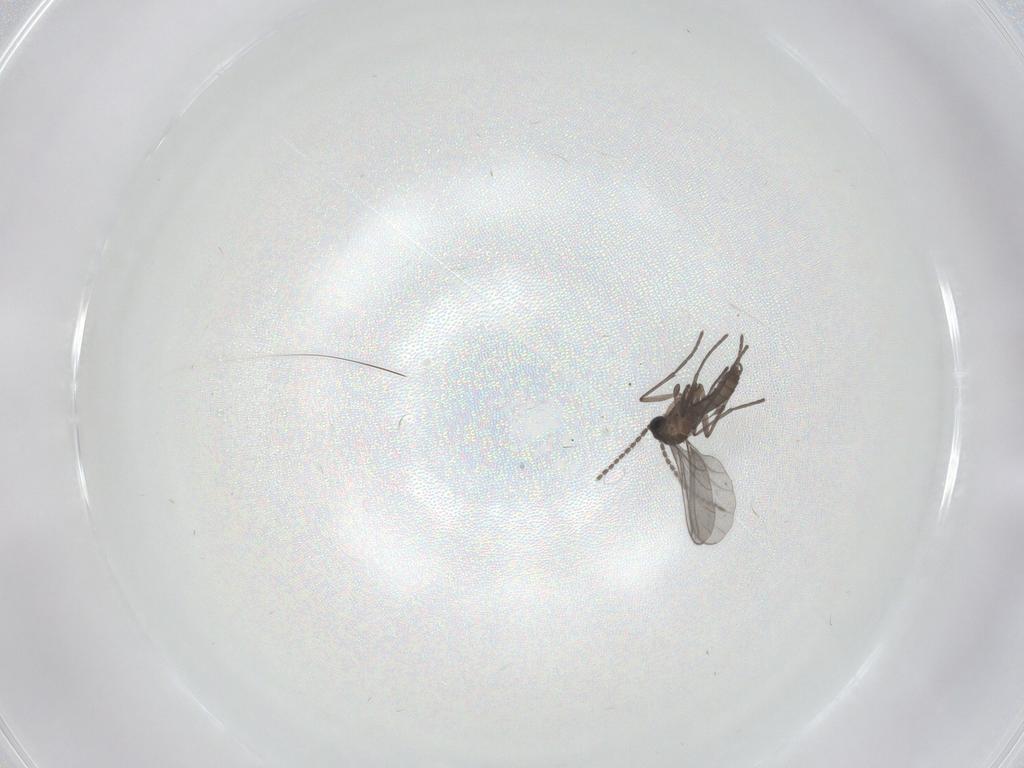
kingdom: Animalia
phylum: Arthropoda
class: Insecta
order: Diptera
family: Sciaridae
